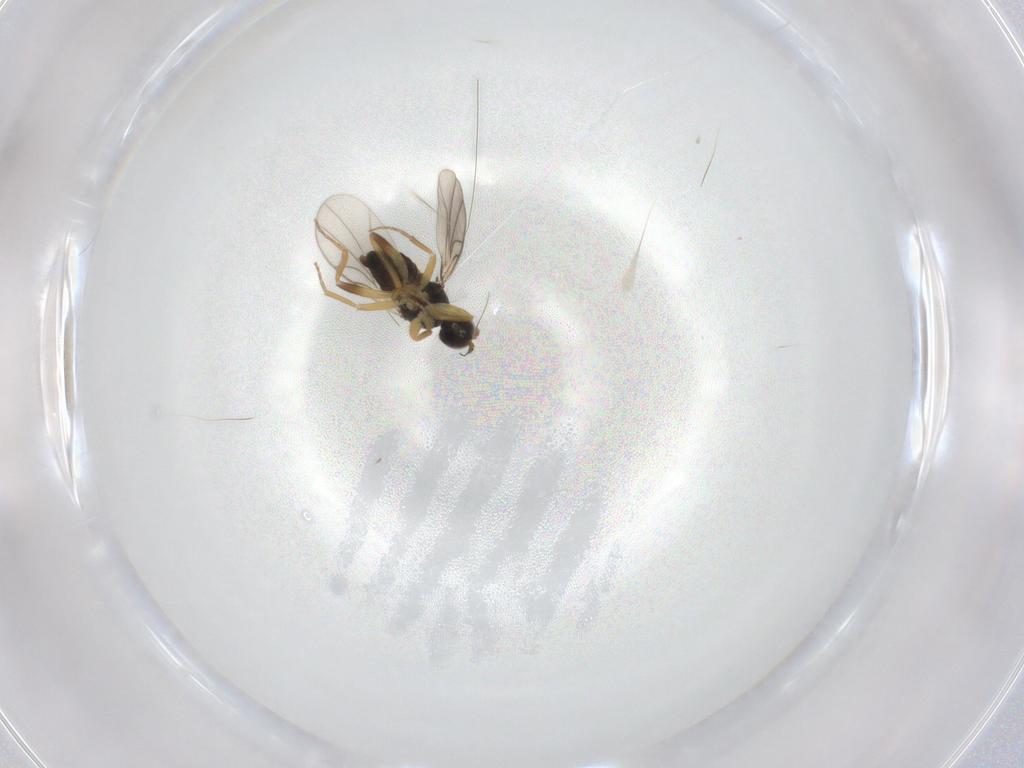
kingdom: Animalia
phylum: Arthropoda
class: Insecta
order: Diptera
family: Hybotidae
